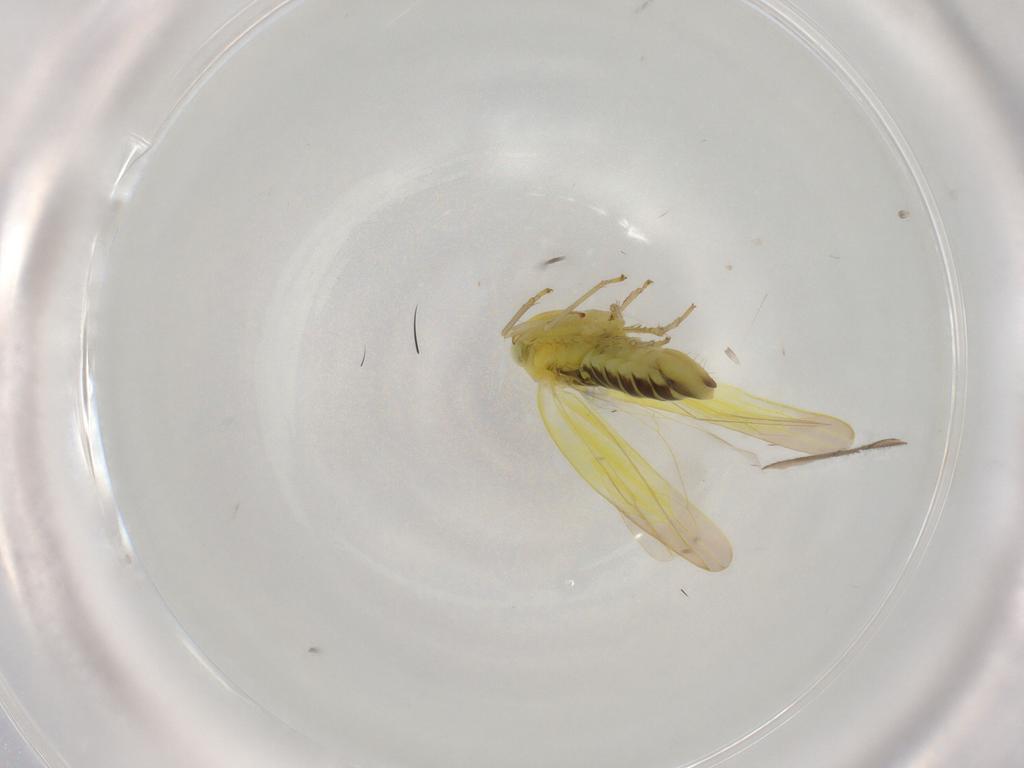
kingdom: Animalia
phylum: Arthropoda
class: Insecta
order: Hemiptera
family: Cicadellidae
